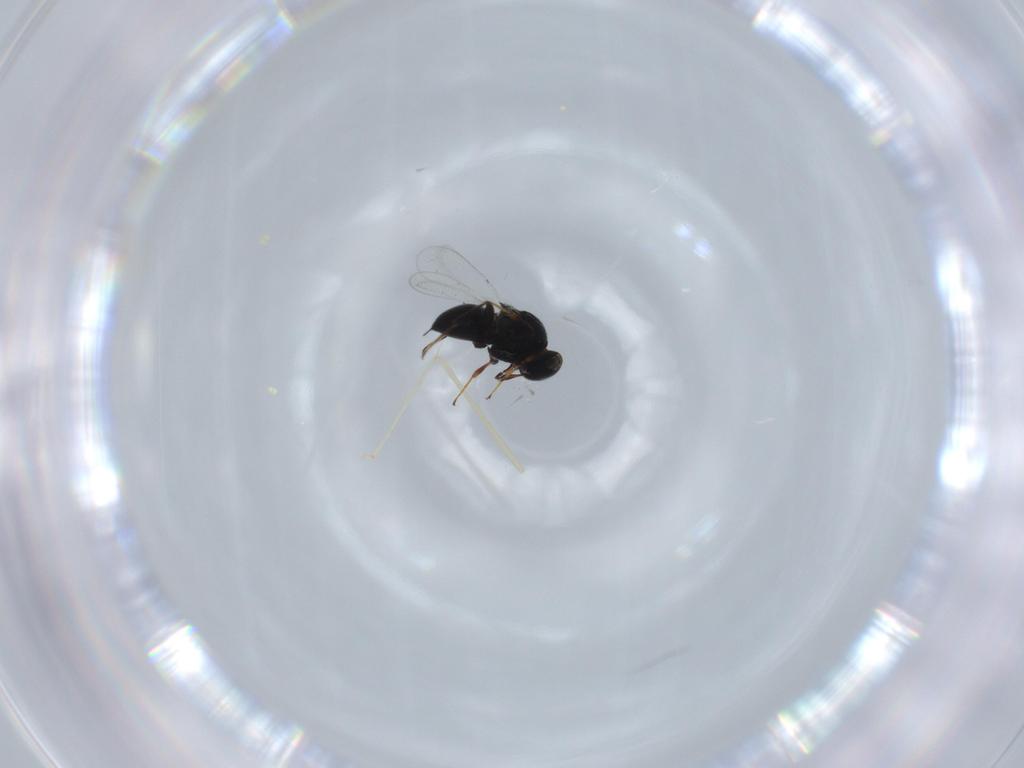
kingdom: Animalia
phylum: Arthropoda
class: Insecta
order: Hymenoptera
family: Platygastridae
